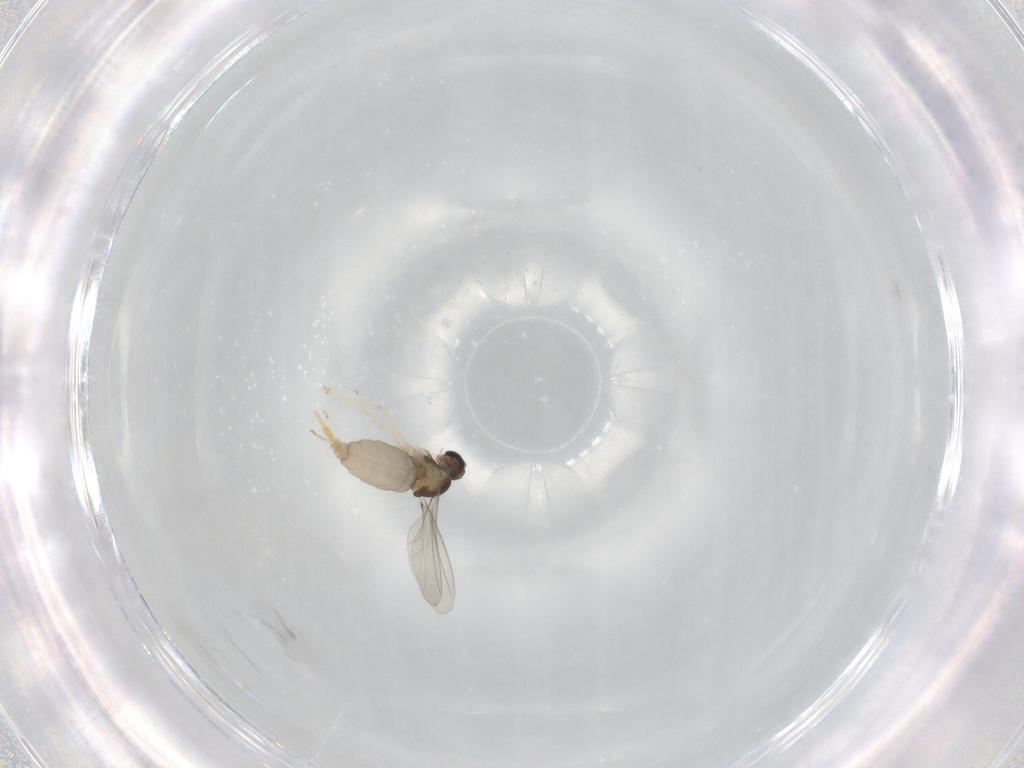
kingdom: Animalia
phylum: Arthropoda
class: Insecta
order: Diptera
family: Cecidomyiidae
